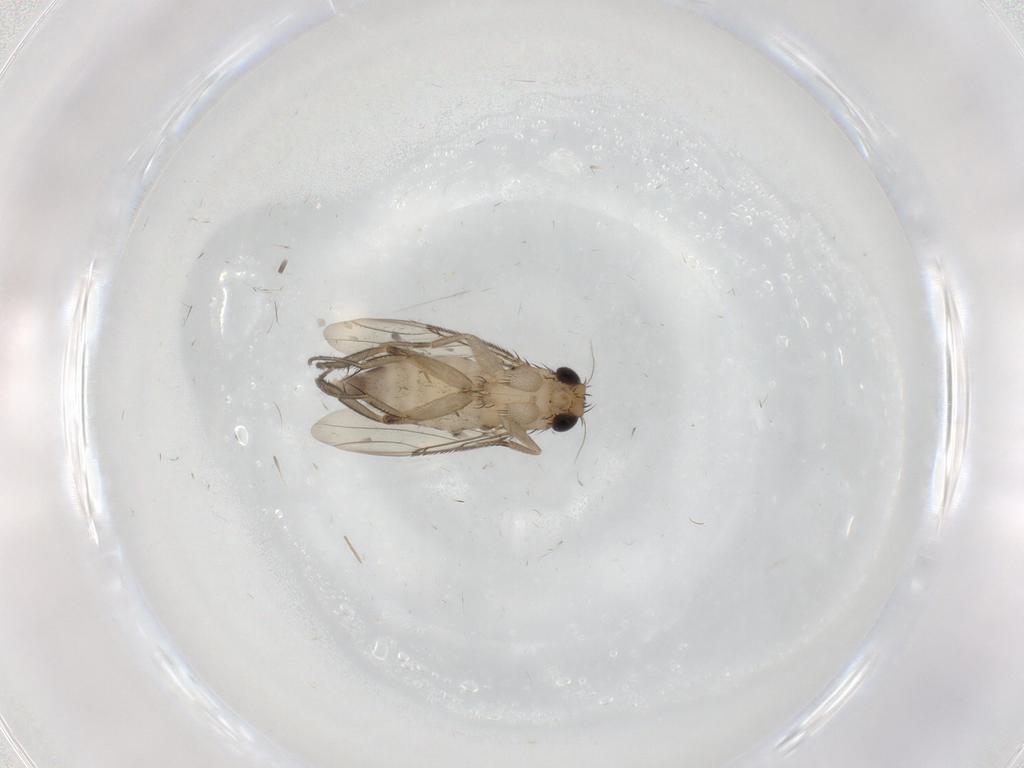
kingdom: Animalia
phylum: Arthropoda
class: Insecta
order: Diptera
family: Phoridae
